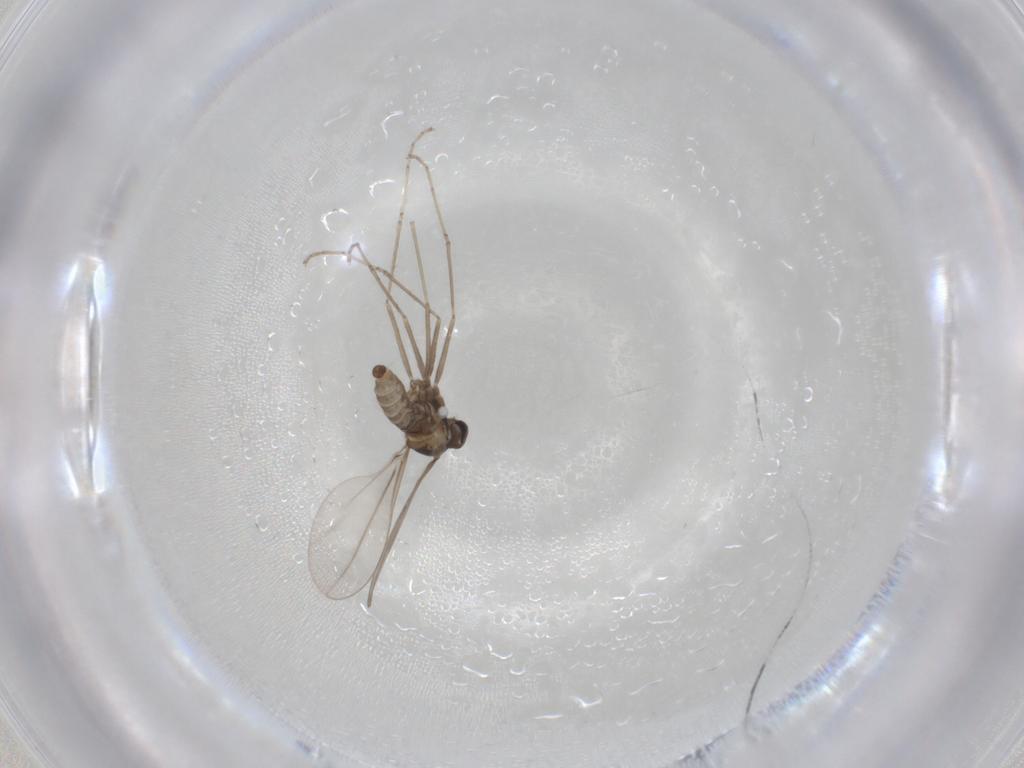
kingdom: Animalia
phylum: Arthropoda
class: Insecta
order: Diptera
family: Cecidomyiidae
